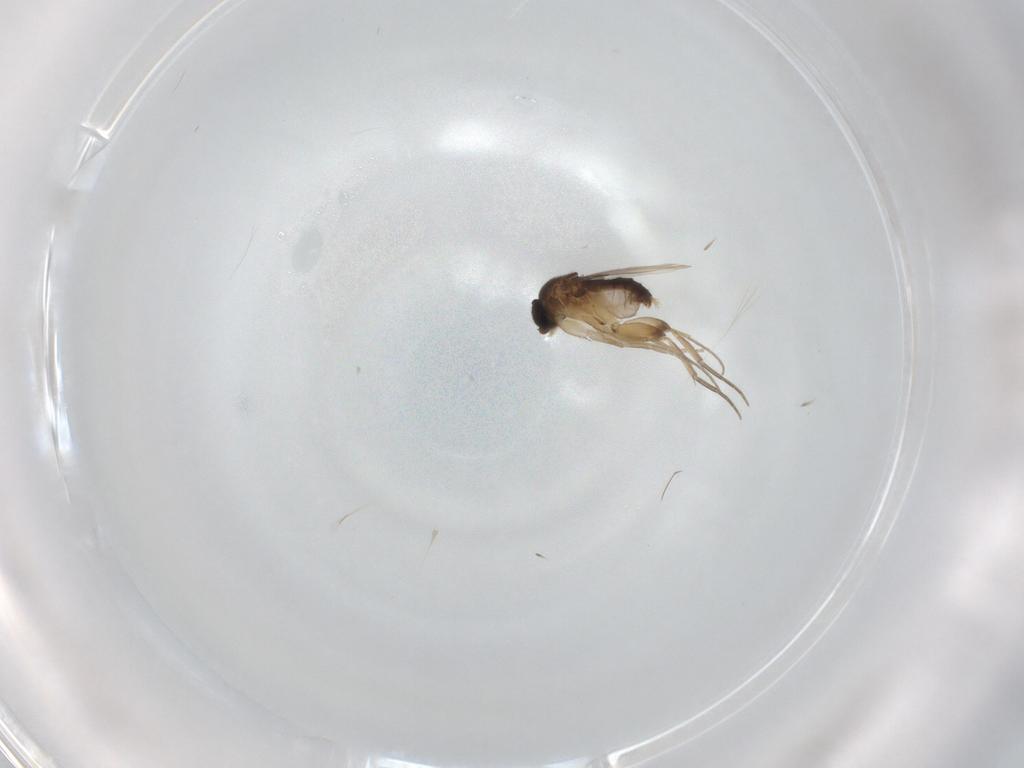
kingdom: Animalia
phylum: Arthropoda
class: Insecta
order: Diptera
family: Phoridae
